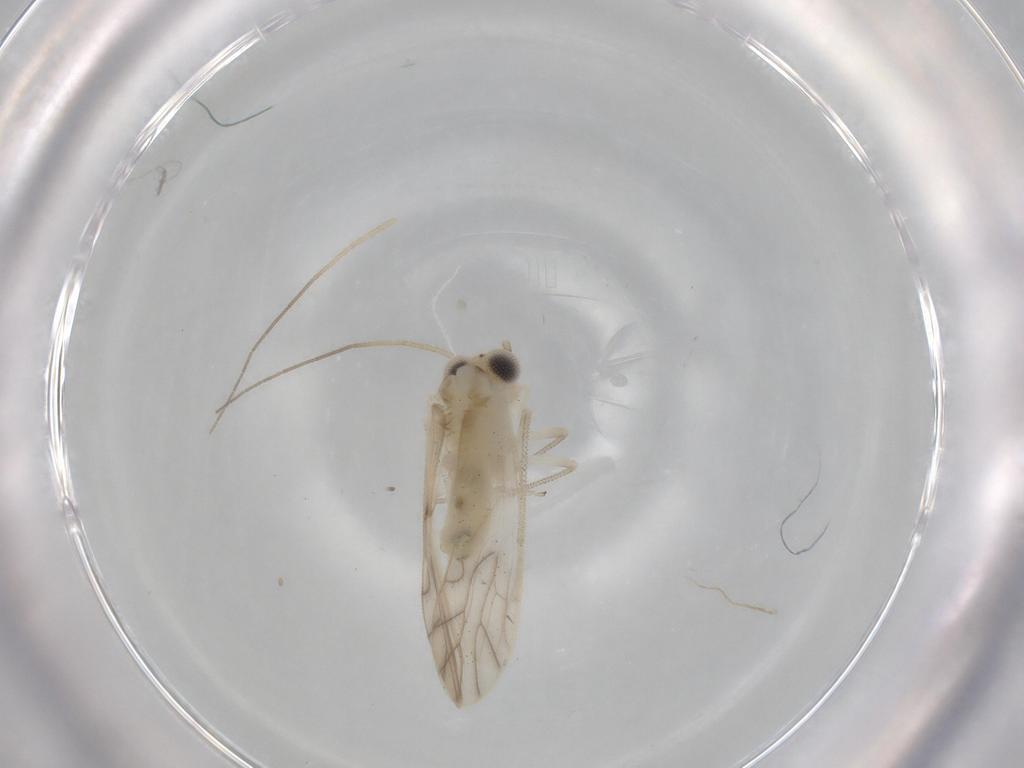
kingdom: Animalia
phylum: Arthropoda
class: Insecta
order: Psocodea
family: Caeciliusidae
